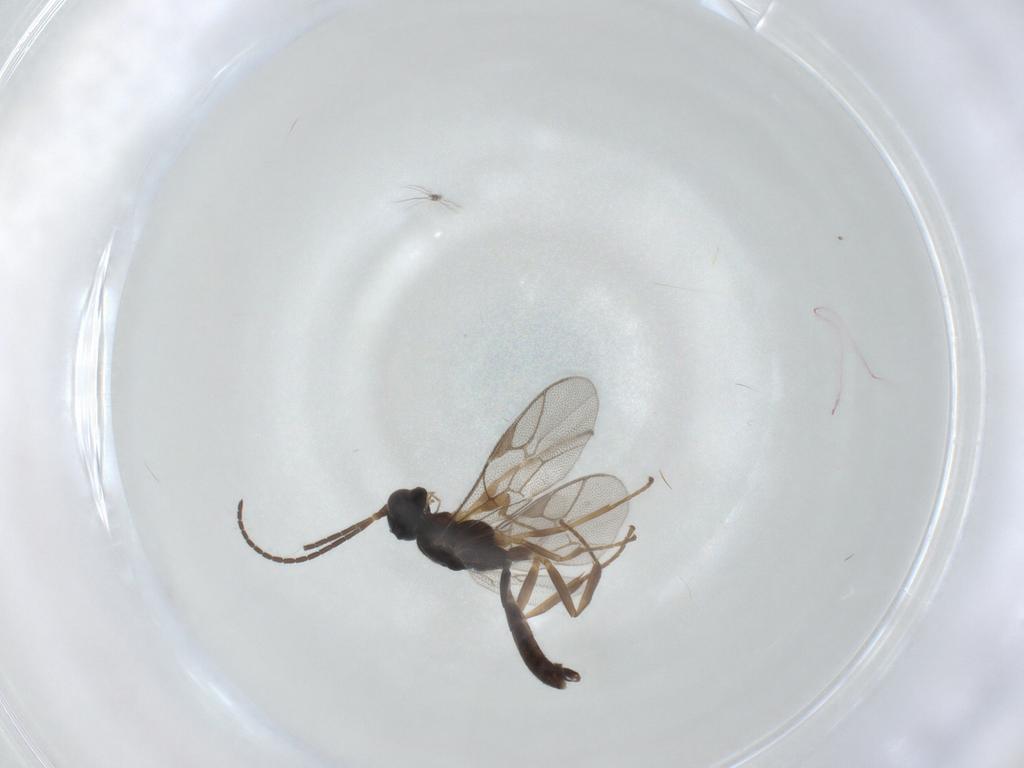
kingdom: Animalia
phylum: Arthropoda
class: Insecta
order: Hymenoptera
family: Ichneumonidae
